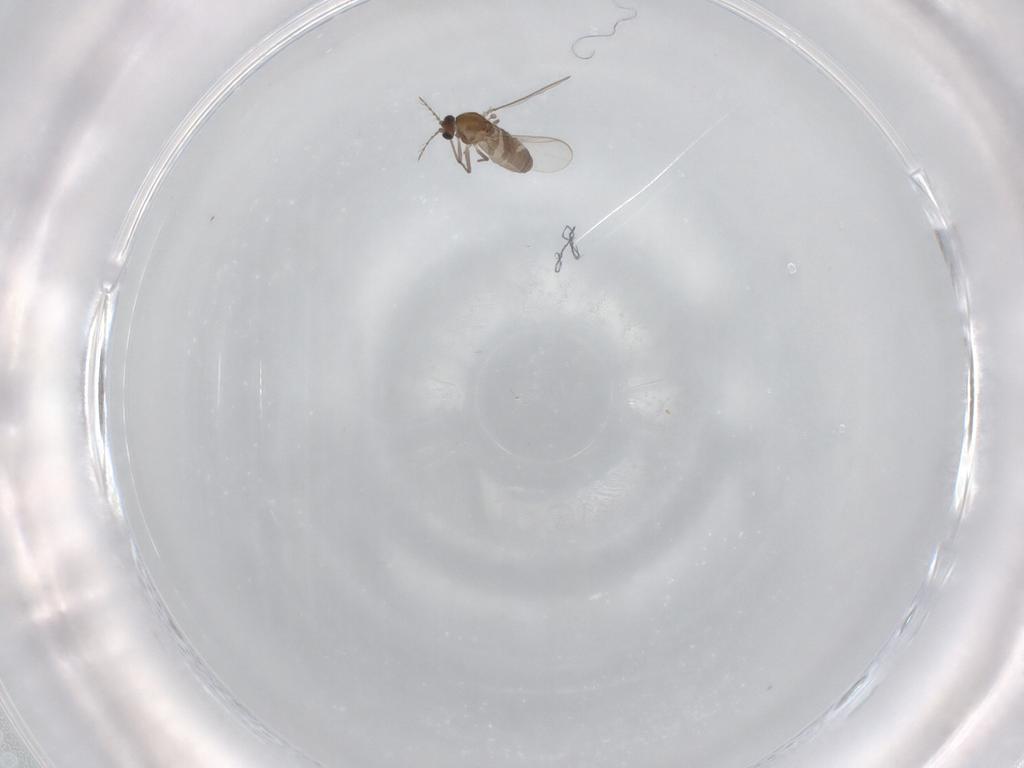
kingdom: Animalia
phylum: Arthropoda
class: Insecta
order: Diptera
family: Chironomidae
